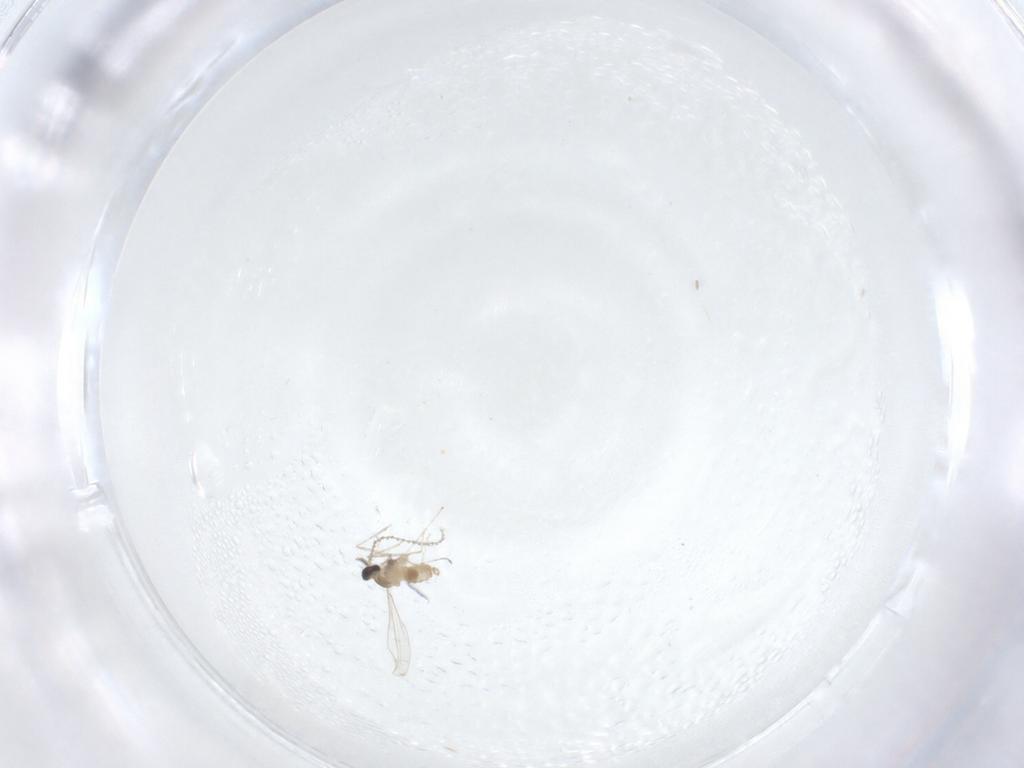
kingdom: Animalia
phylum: Arthropoda
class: Insecta
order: Diptera
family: Cecidomyiidae
